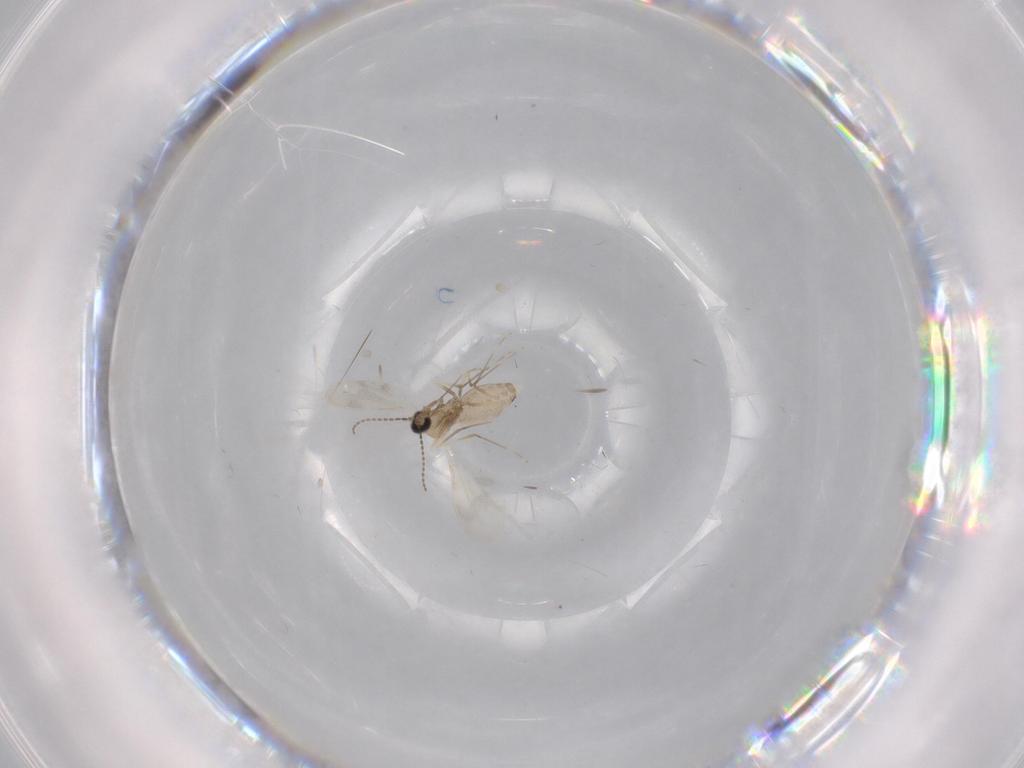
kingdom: Animalia
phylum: Arthropoda
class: Insecta
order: Diptera
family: Cecidomyiidae
